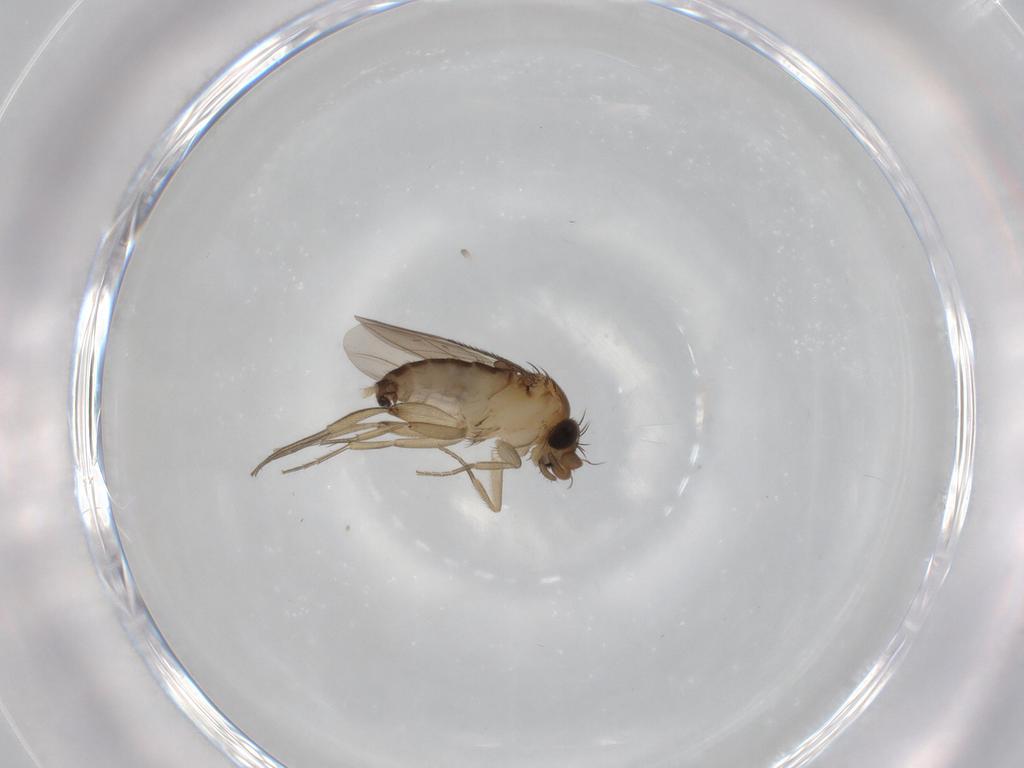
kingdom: Animalia
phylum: Arthropoda
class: Insecta
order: Diptera
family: Phoridae
